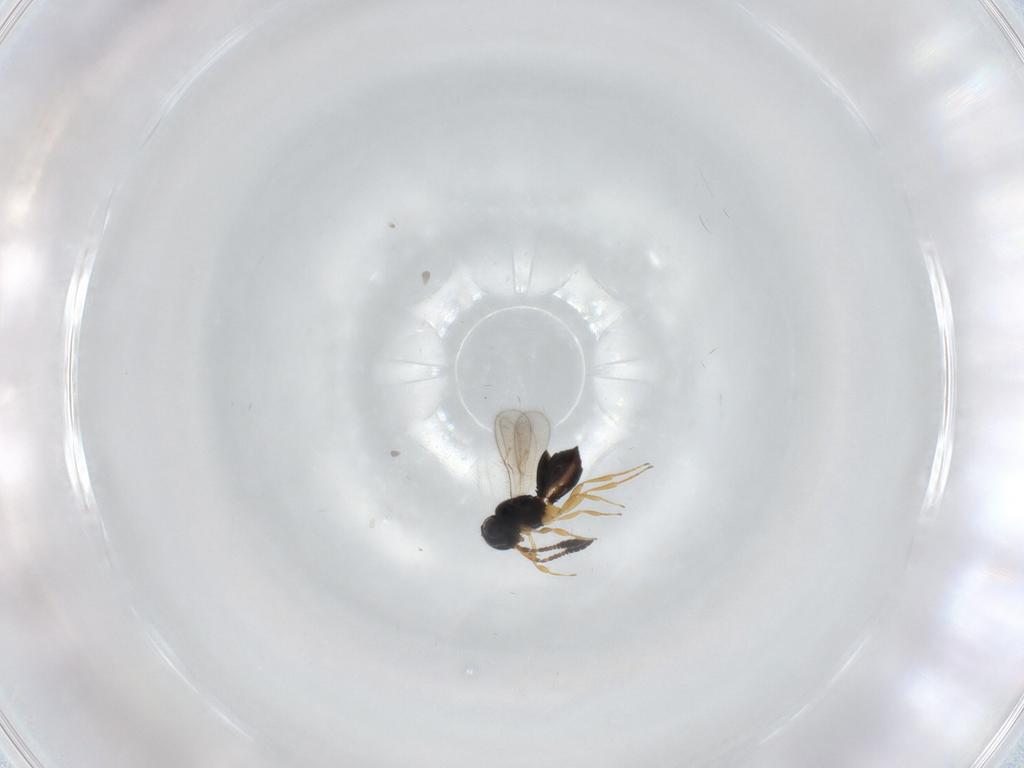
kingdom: Animalia
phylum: Arthropoda
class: Insecta
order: Hymenoptera
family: Scelionidae
